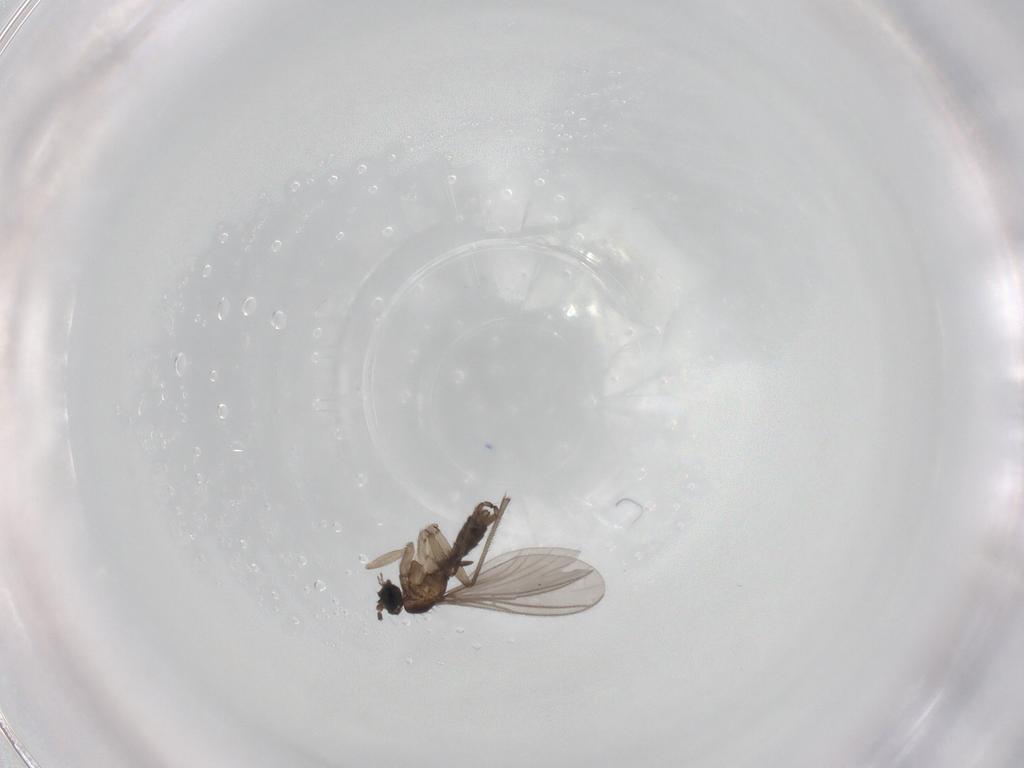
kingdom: Animalia
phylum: Arthropoda
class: Insecta
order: Diptera
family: Sciaridae
